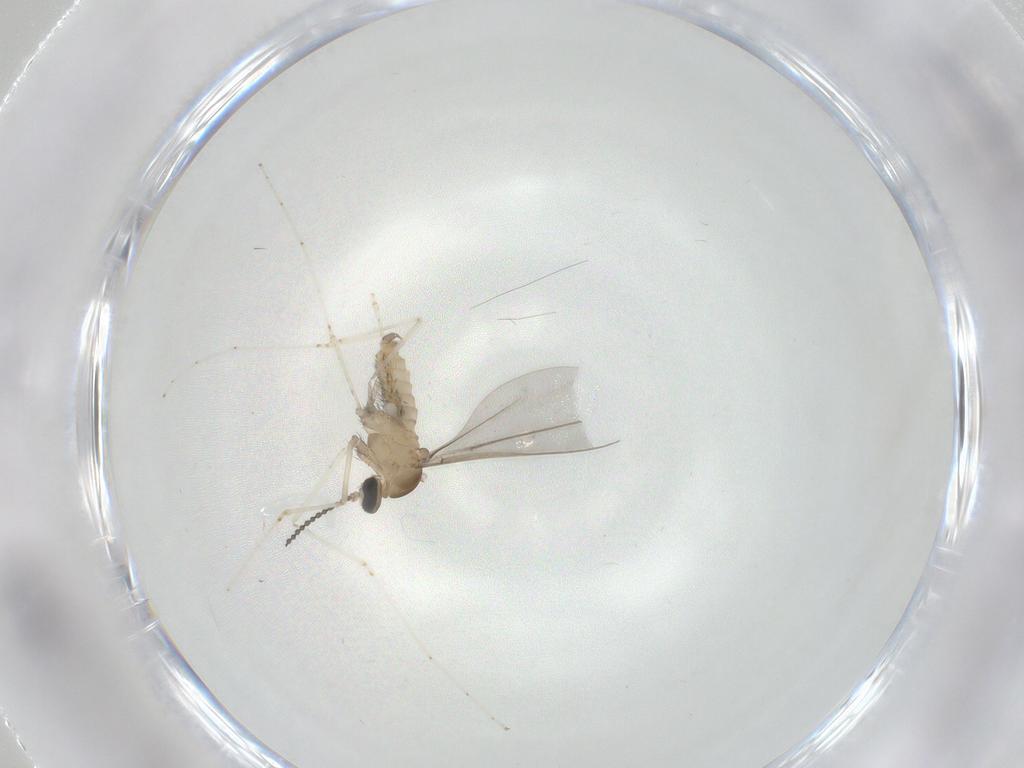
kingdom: Animalia
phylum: Arthropoda
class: Insecta
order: Diptera
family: Cecidomyiidae
